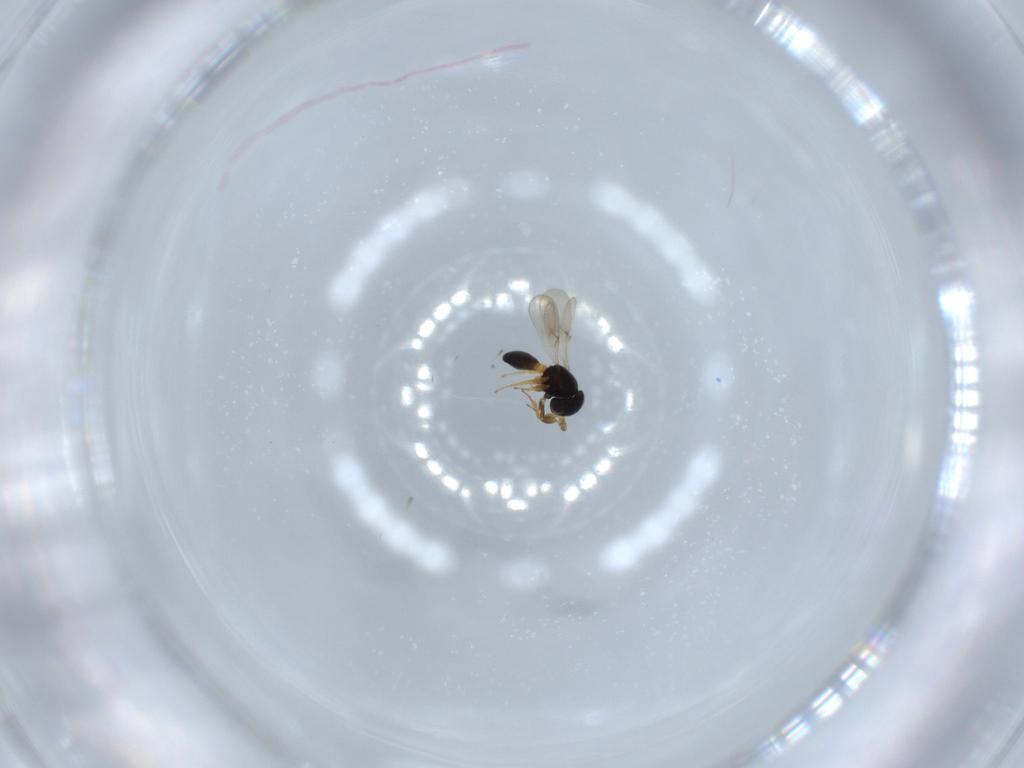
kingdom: Animalia
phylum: Arthropoda
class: Insecta
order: Hymenoptera
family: Scelionidae
